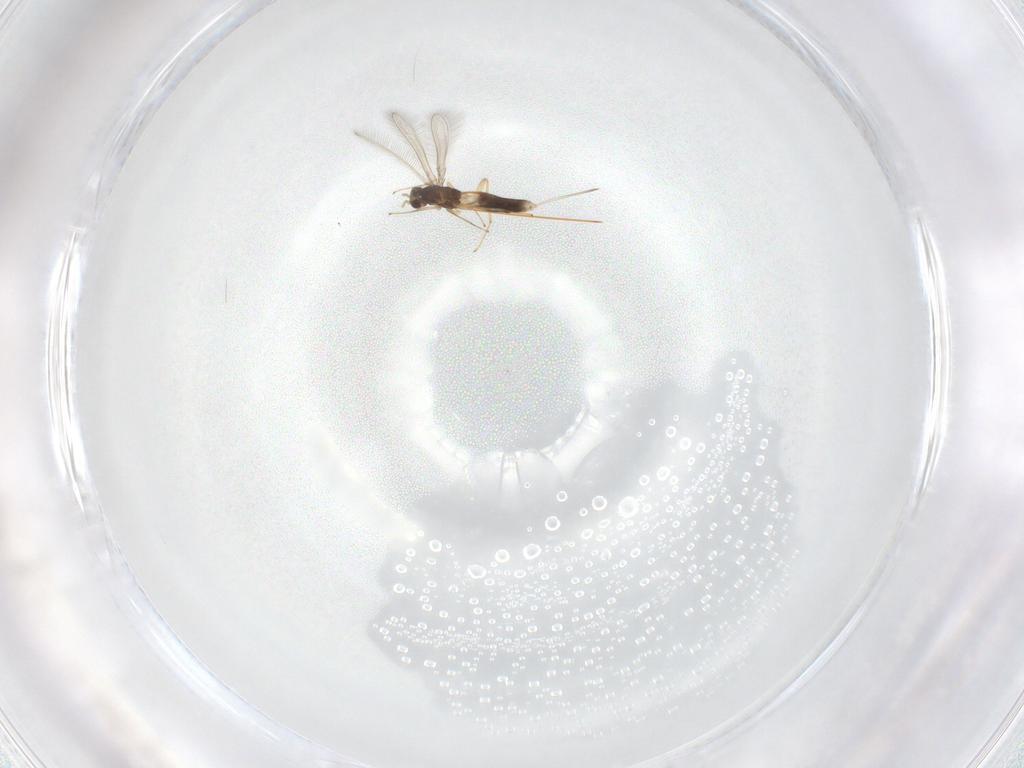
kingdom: Animalia
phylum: Arthropoda
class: Insecta
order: Hymenoptera
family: Mymaridae
